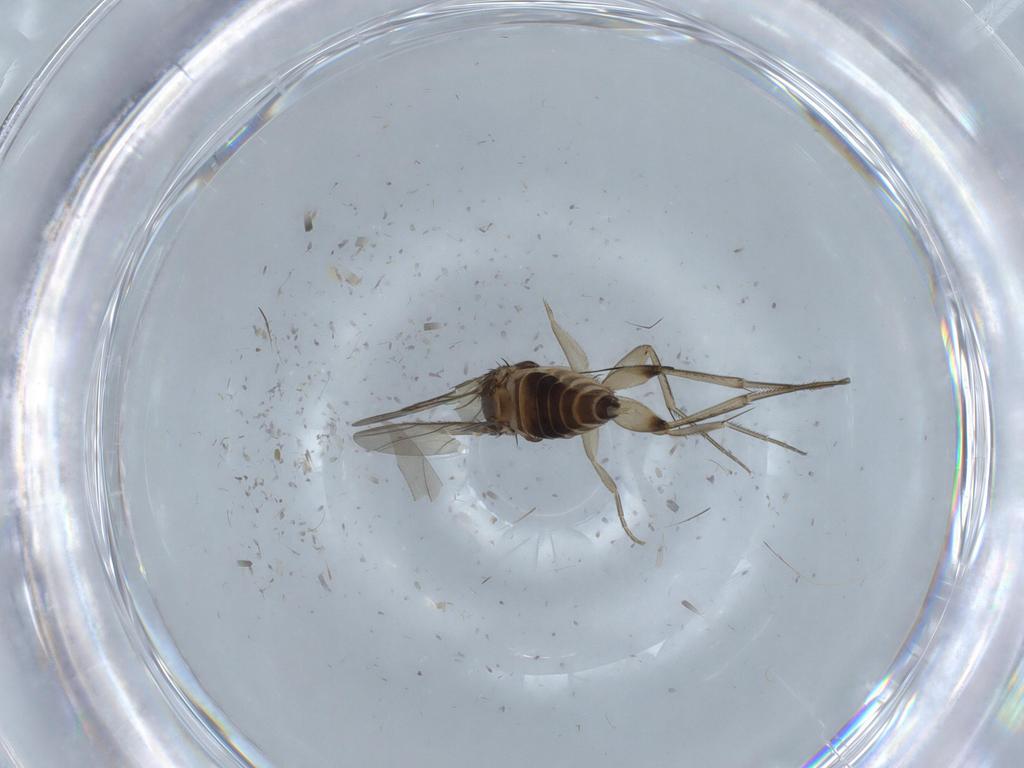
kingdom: Animalia
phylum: Arthropoda
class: Insecta
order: Diptera
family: Phoridae
